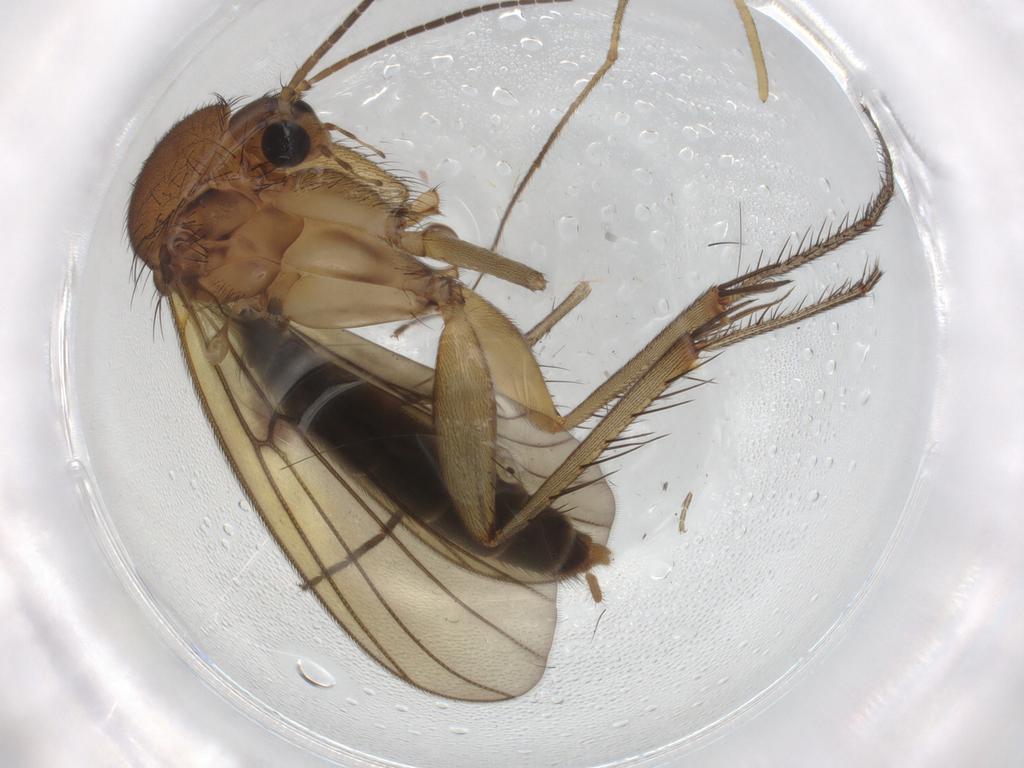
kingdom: Animalia
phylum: Arthropoda
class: Insecta
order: Diptera
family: Mycetophilidae
